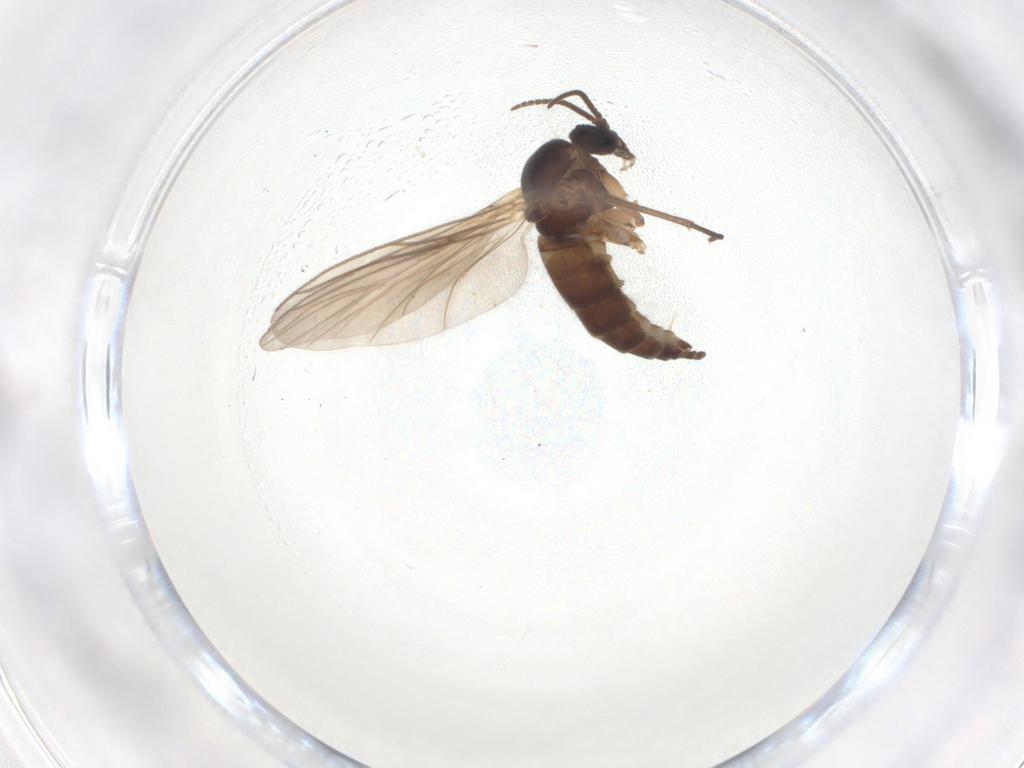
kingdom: Animalia
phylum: Arthropoda
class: Insecta
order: Diptera
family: Sciaridae
